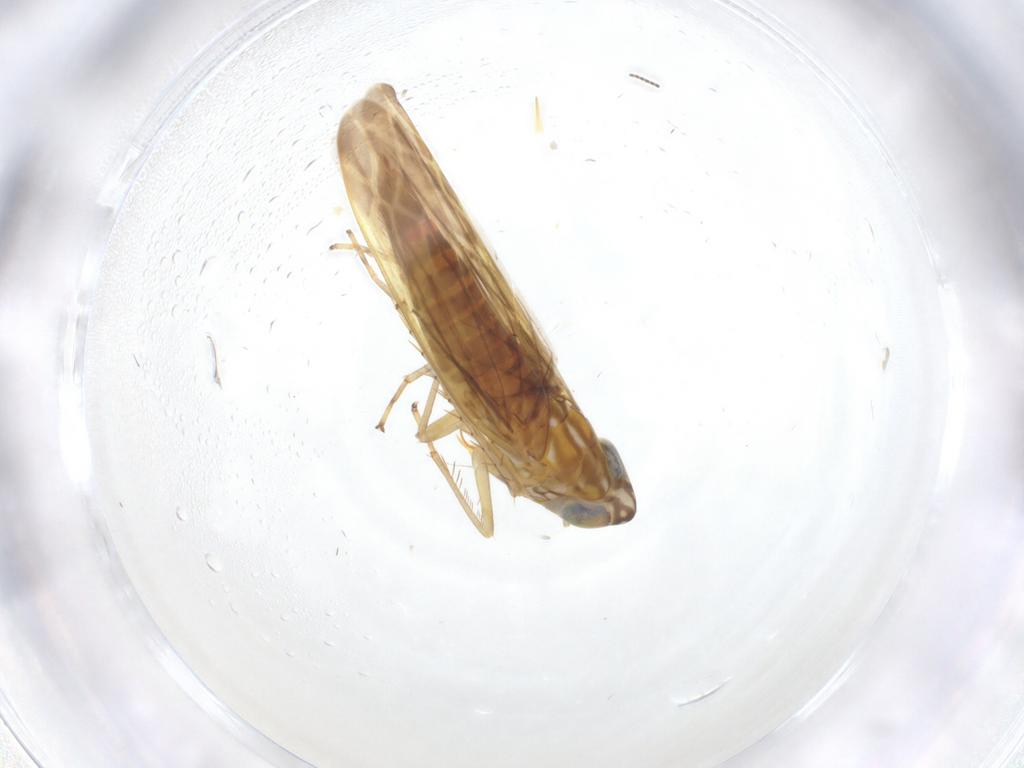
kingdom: Animalia
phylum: Arthropoda
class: Insecta
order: Hemiptera
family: Cicadellidae
